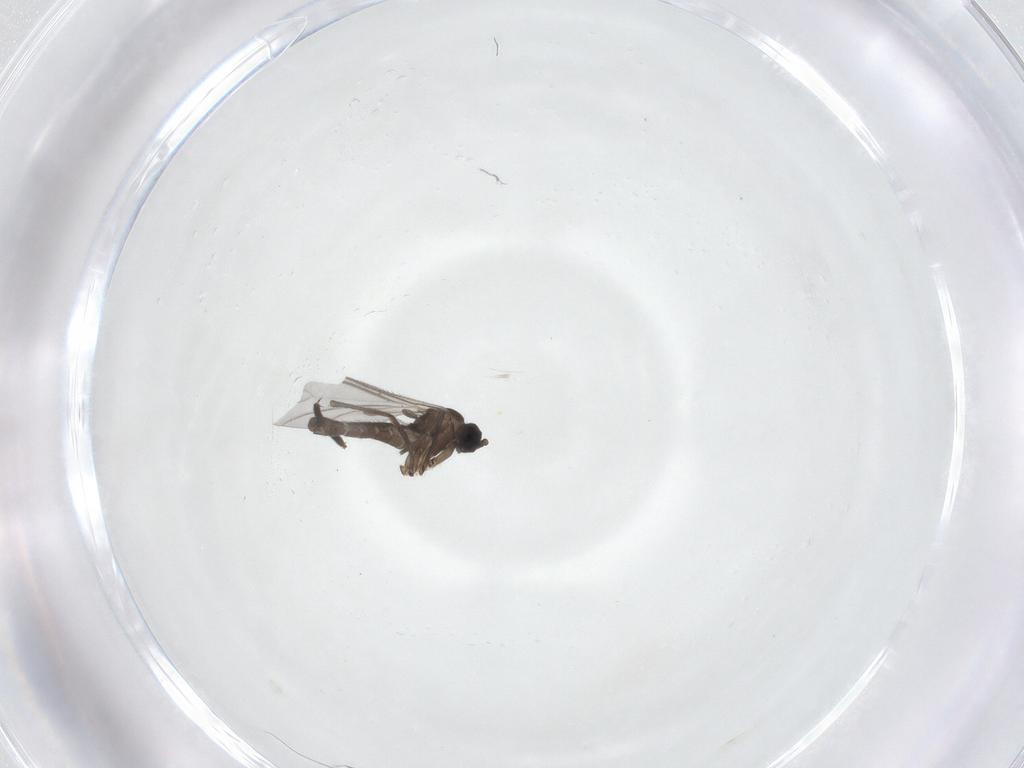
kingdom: Animalia
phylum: Arthropoda
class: Insecta
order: Diptera
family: Sciaridae
